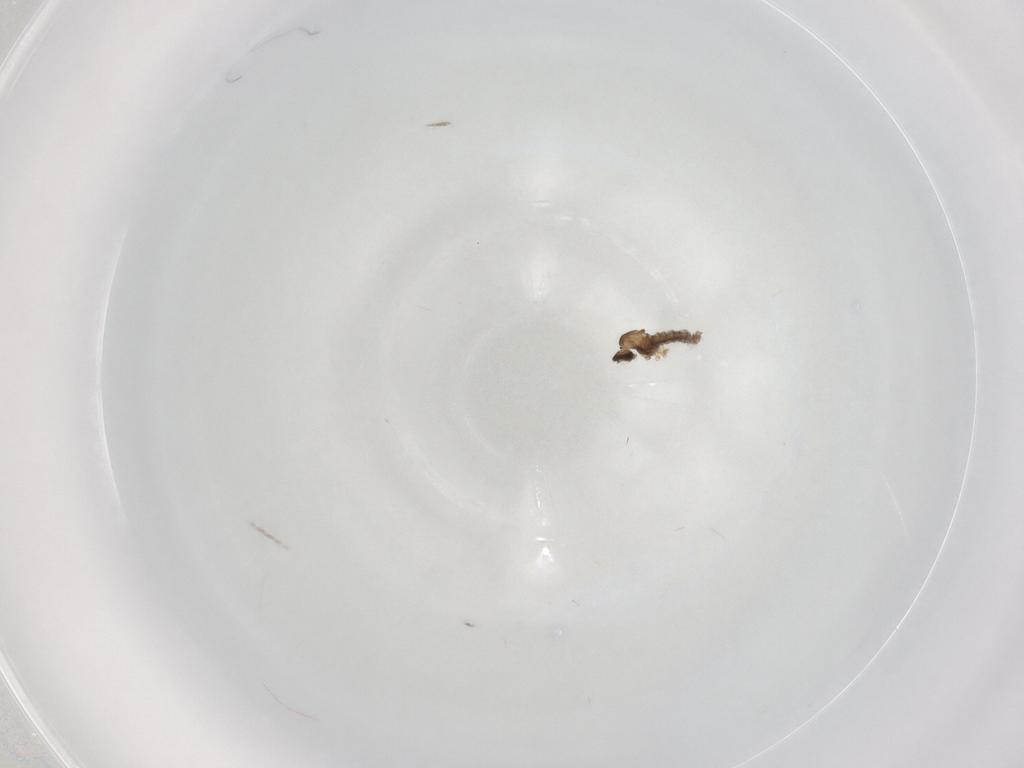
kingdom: Animalia
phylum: Arthropoda
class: Insecta
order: Diptera
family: Cecidomyiidae
